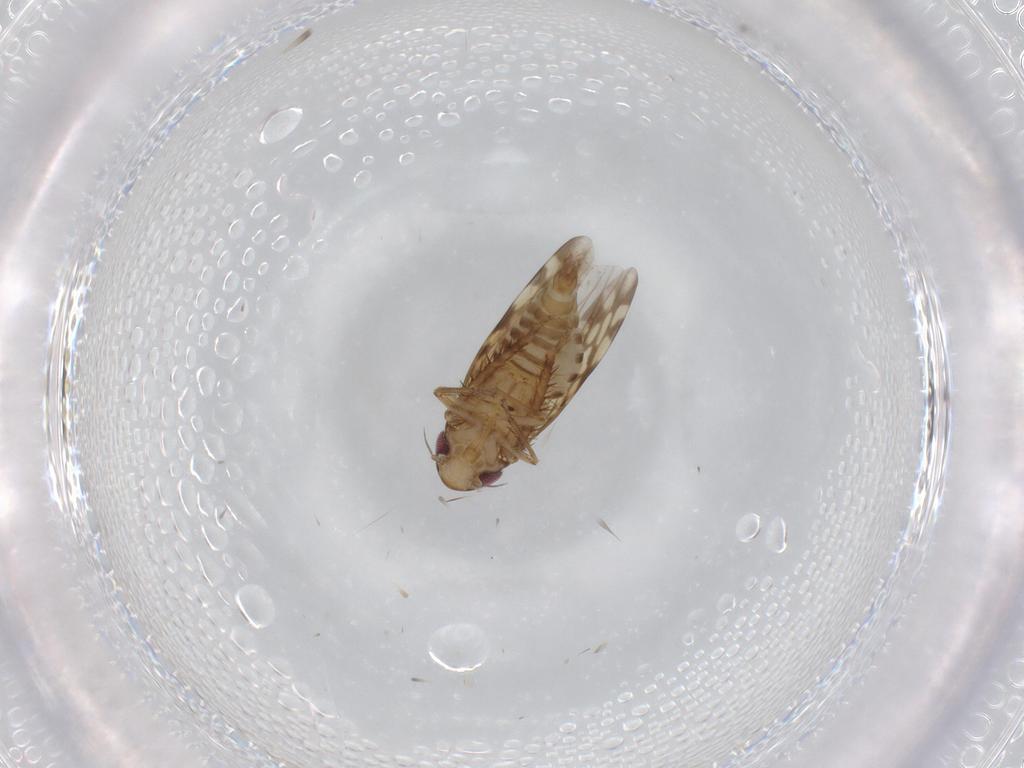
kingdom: Animalia
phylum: Arthropoda
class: Insecta
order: Hemiptera
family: Cicadellidae
